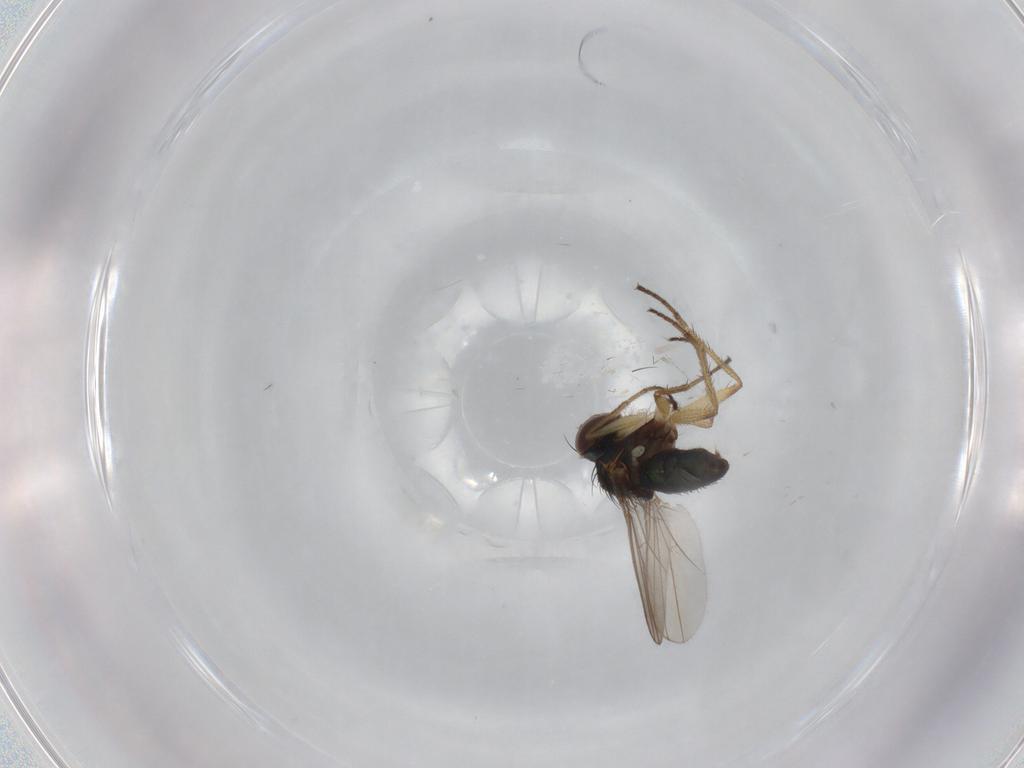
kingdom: Animalia
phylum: Arthropoda
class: Insecta
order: Diptera
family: Dolichopodidae
